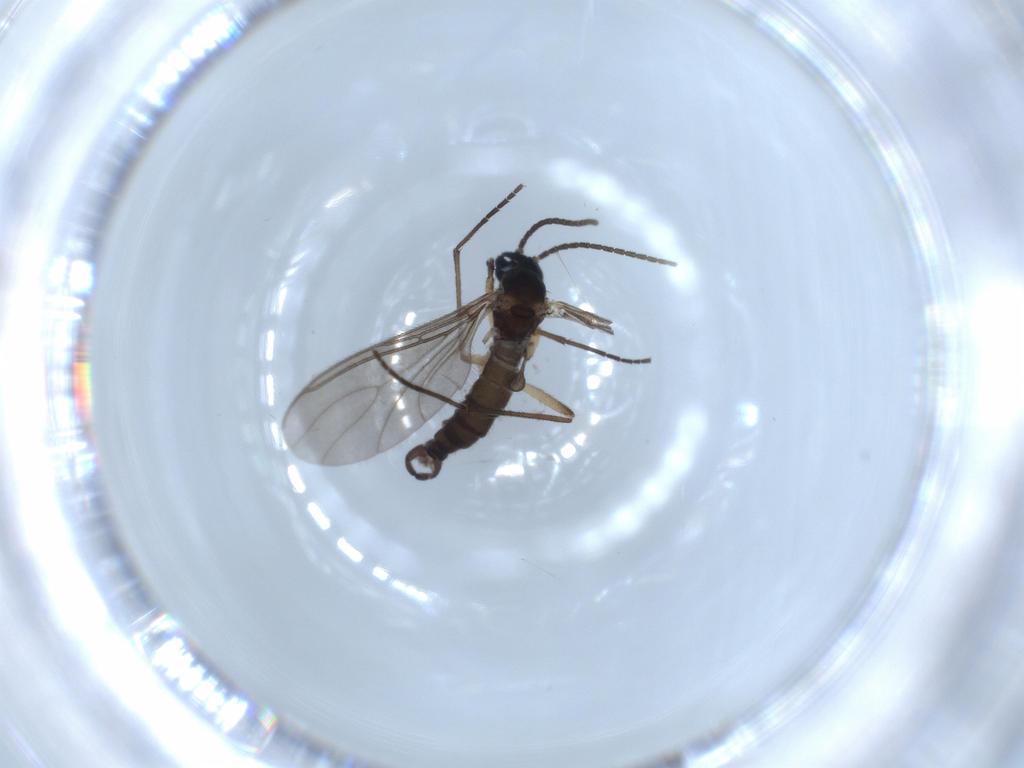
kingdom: Animalia
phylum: Arthropoda
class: Insecta
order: Diptera
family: Sciaridae
